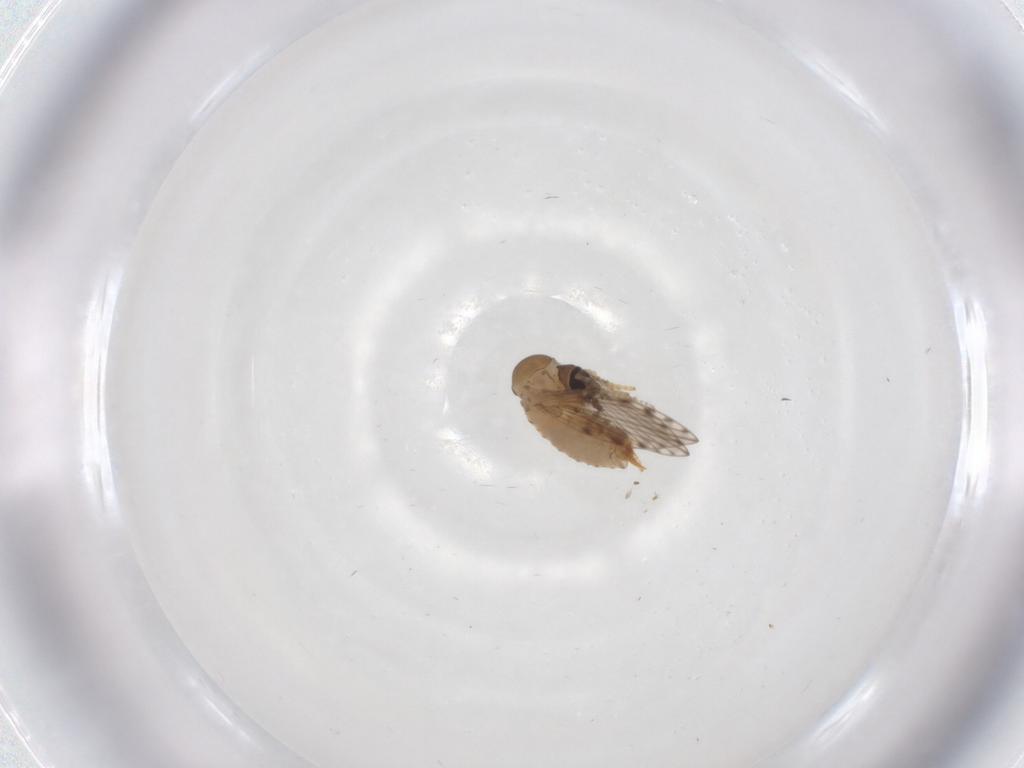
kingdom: Animalia
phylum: Arthropoda
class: Insecta
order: Diptera
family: Psychodidae
